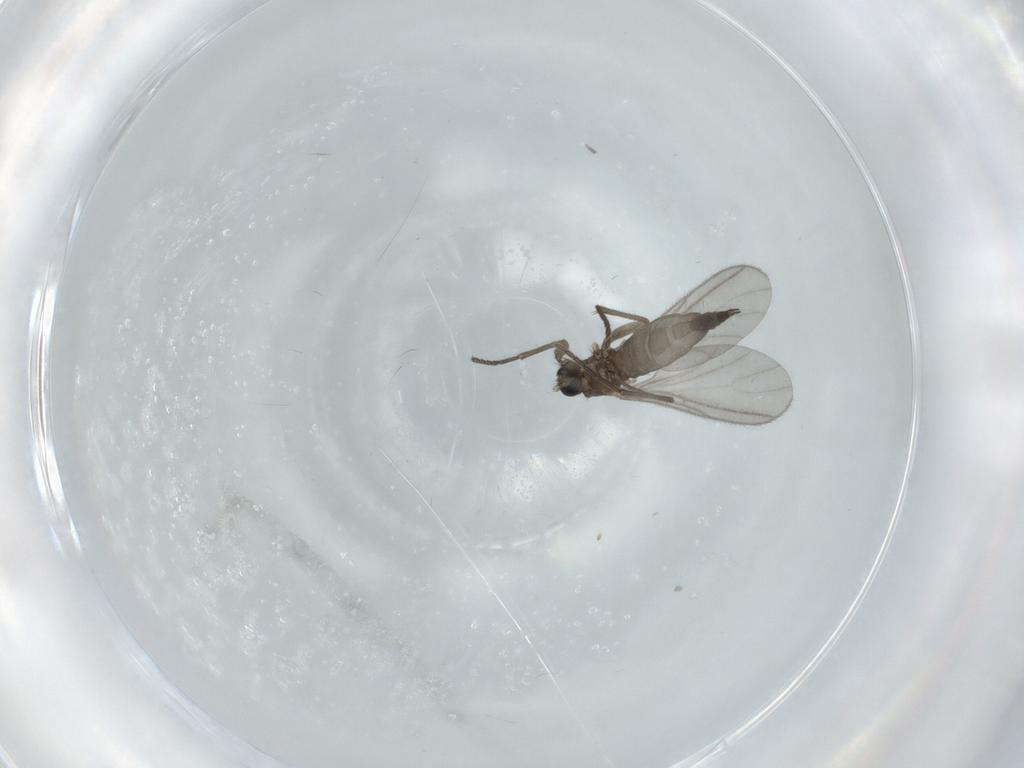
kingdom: Animalia
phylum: Arthropoda
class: Insecta
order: Diptera
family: Sciaridae
